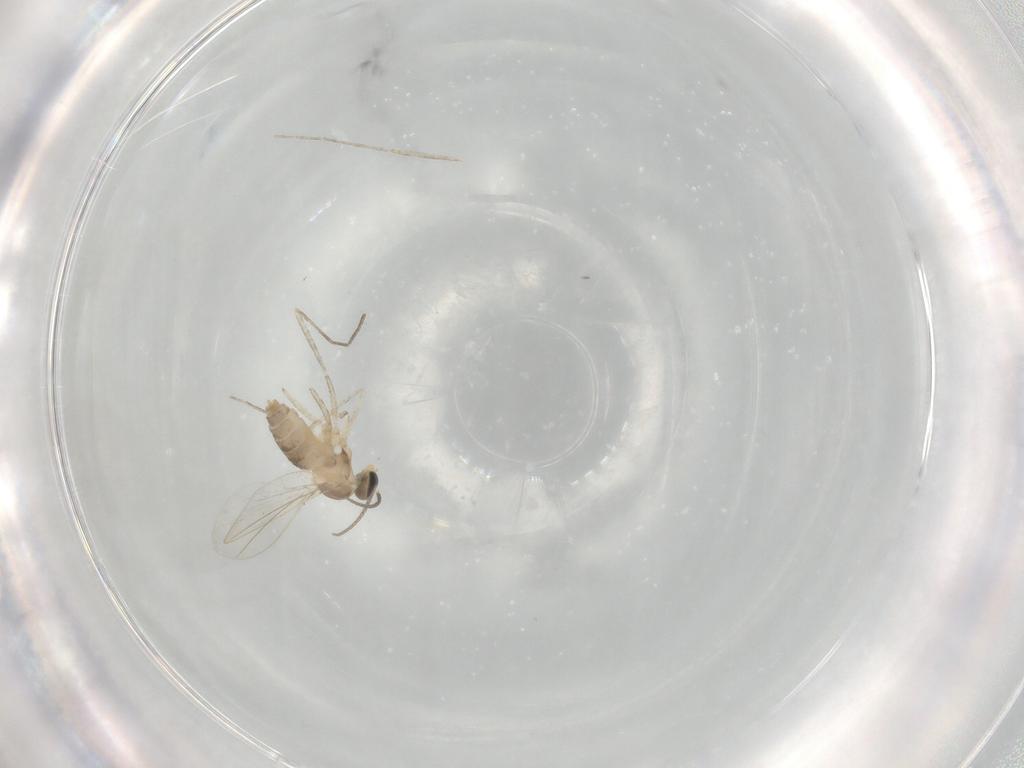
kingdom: Animalia
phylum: Arthropoda
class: Insecta
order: Diptera
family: Cecidomyiidae
